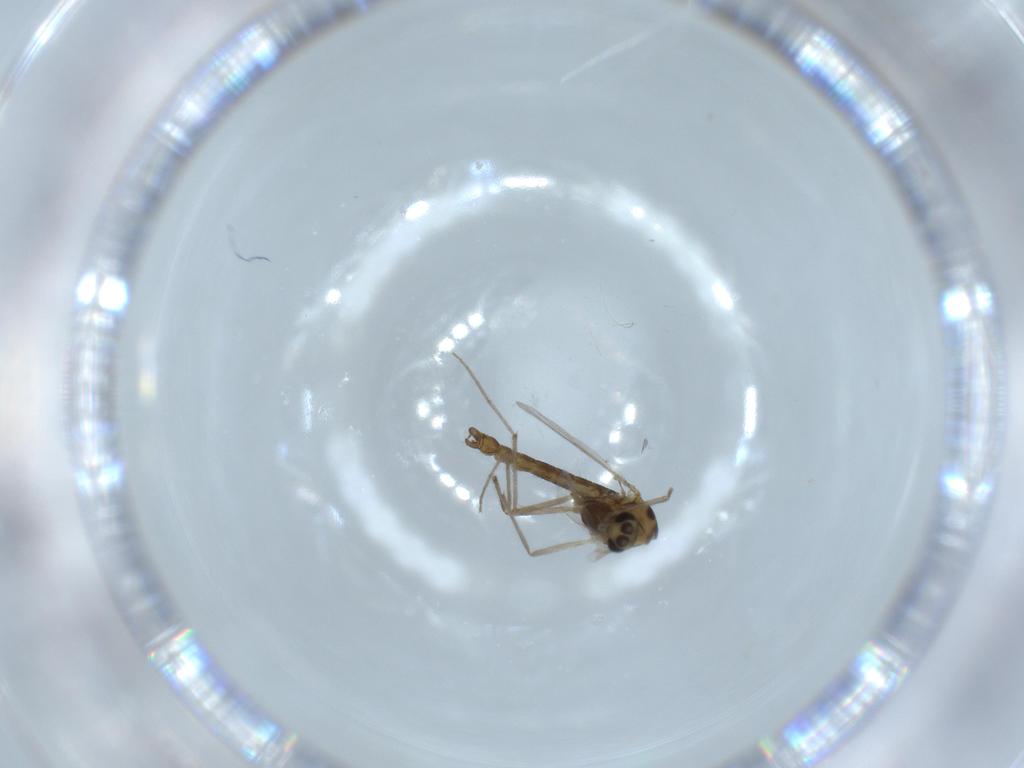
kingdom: Animalia
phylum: Arthropoda
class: Insecta
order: Diptera
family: Chironomidae
